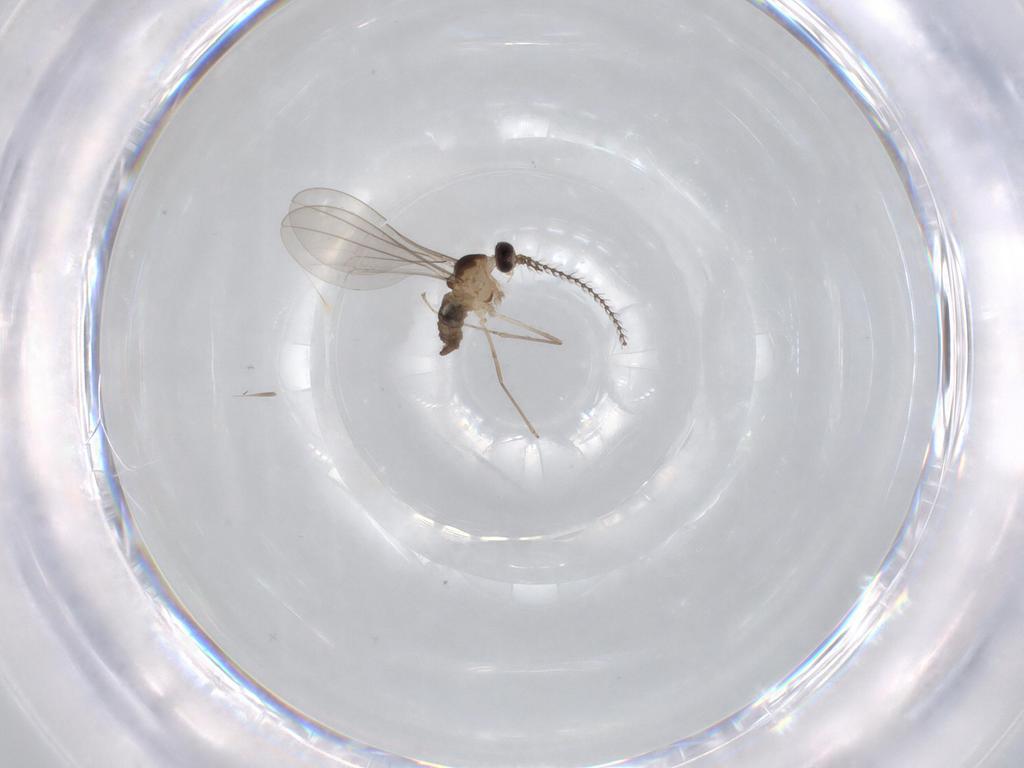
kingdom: Animalia
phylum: Arthropoda
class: Insecta
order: Diptera
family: Cecidomyiidae
